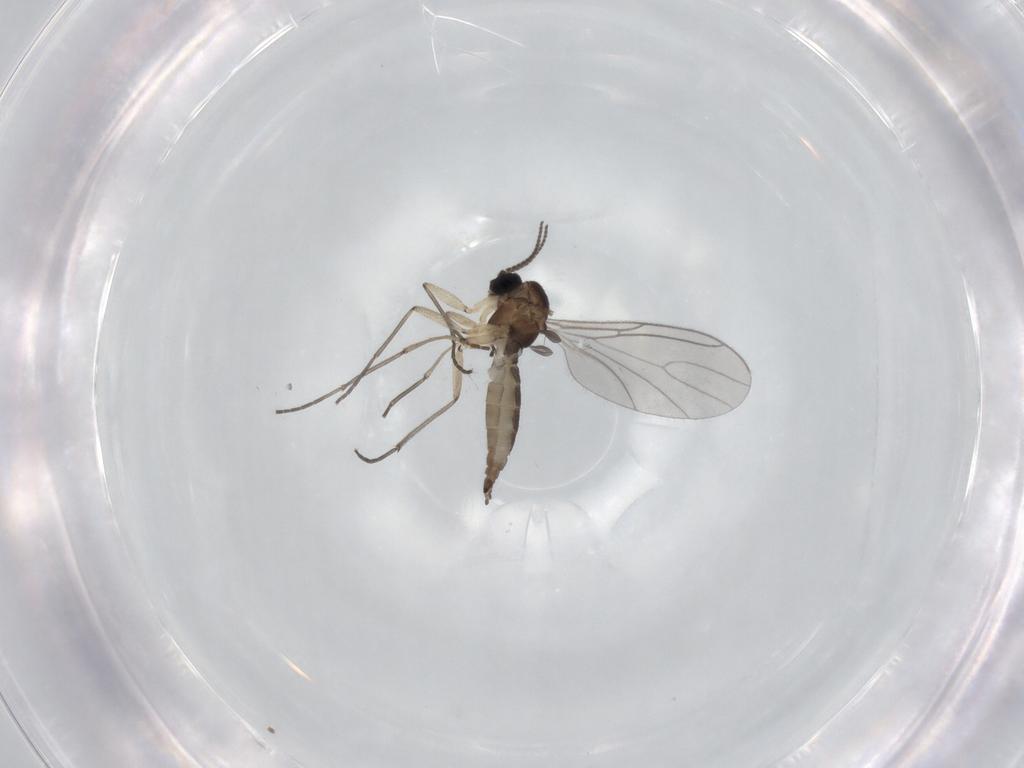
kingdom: Animalia
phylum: Arthropoda
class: Insecta
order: Diptera
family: Sciaridae
